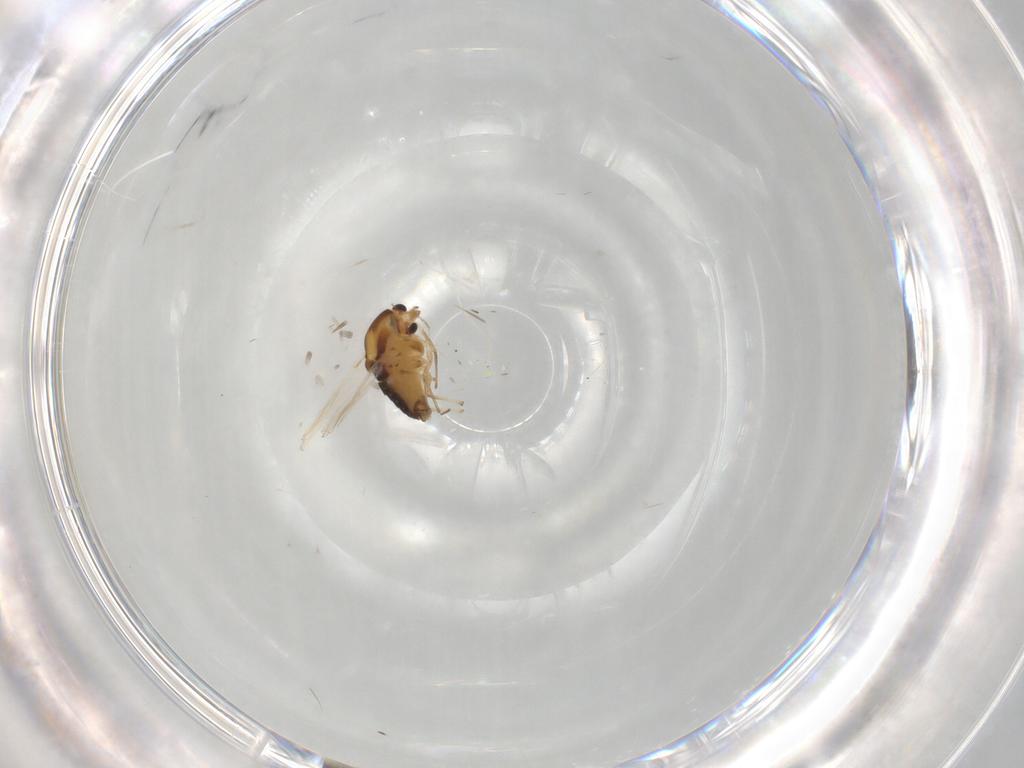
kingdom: Animalia
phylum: Arthropoda
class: Insecta
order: Diptera
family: Chironomidae
